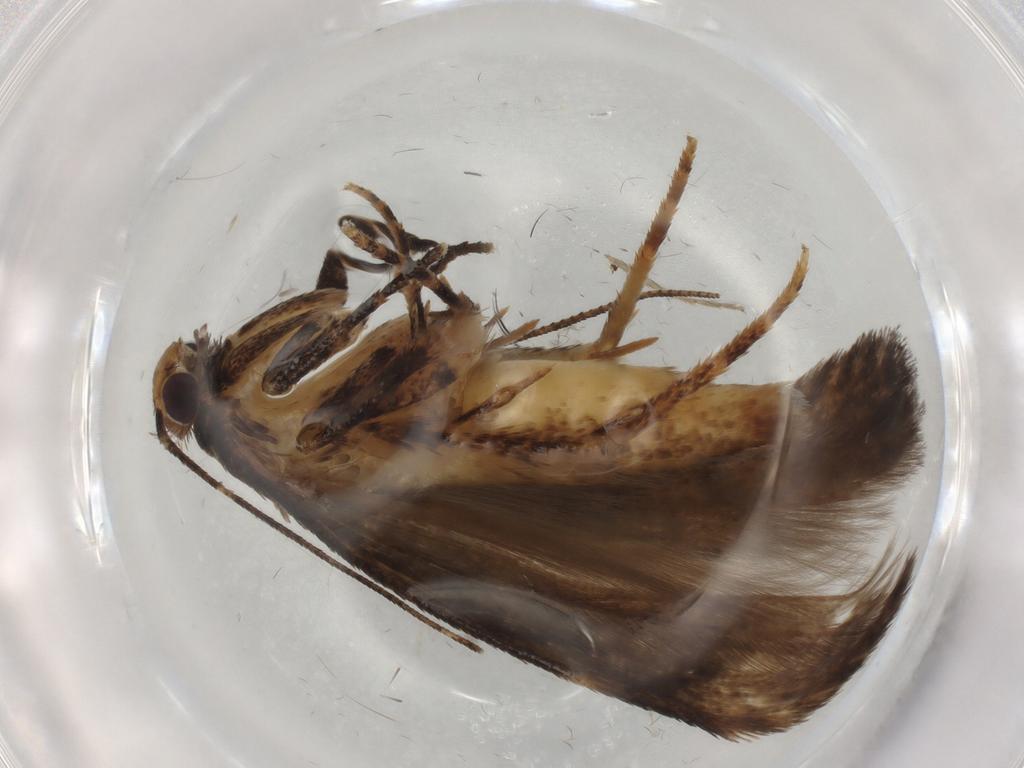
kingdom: Animalia
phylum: Arthropoda
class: Insecta
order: Lepidoptera
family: Gelechiidae
